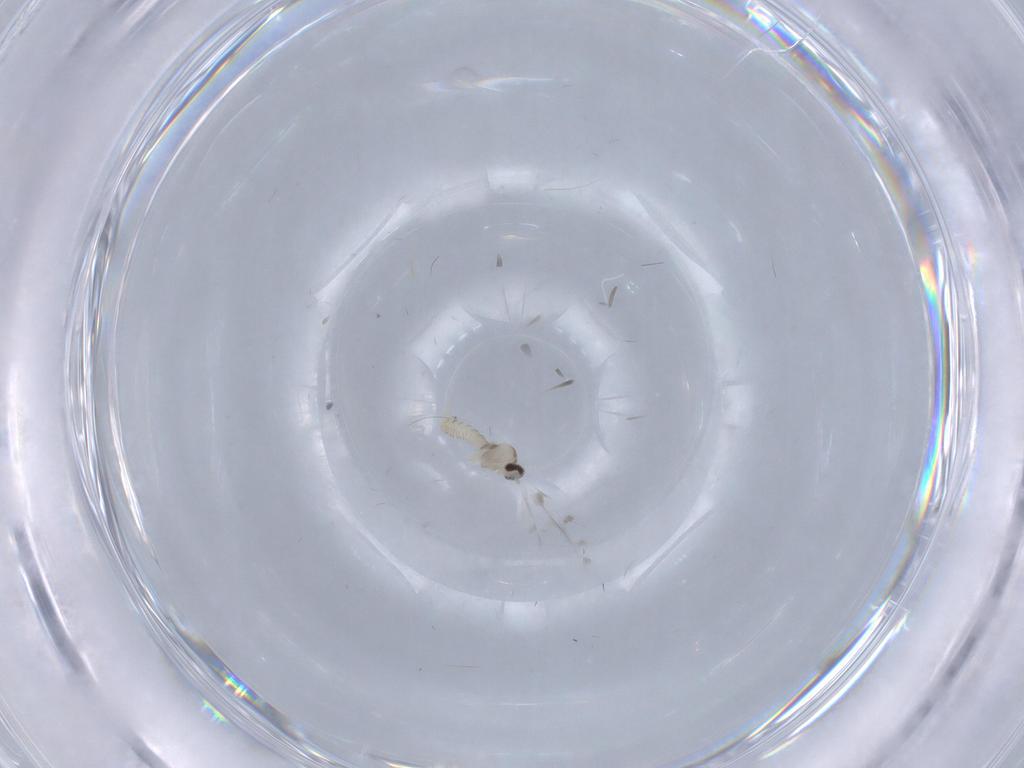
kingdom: Animalia
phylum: Arthropoda
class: Insecta
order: Diptera
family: Cecidomyiidae
